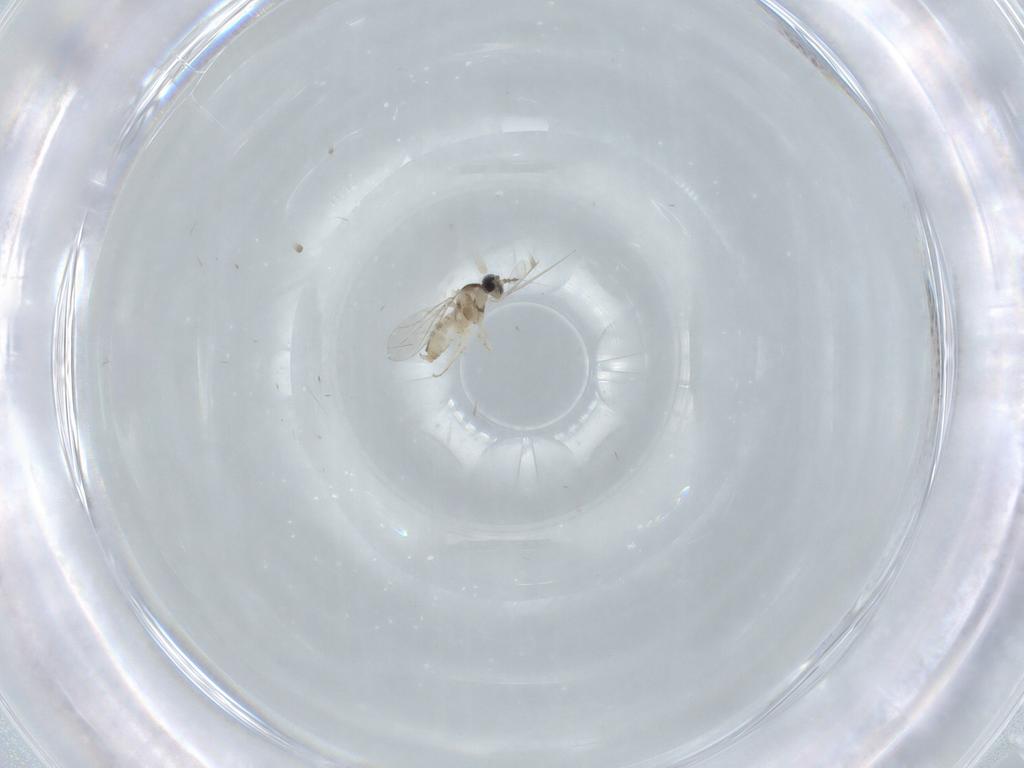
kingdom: Animalia
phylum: Arthropoda
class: Insecta
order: Diptera
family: Cecidomyiidae
